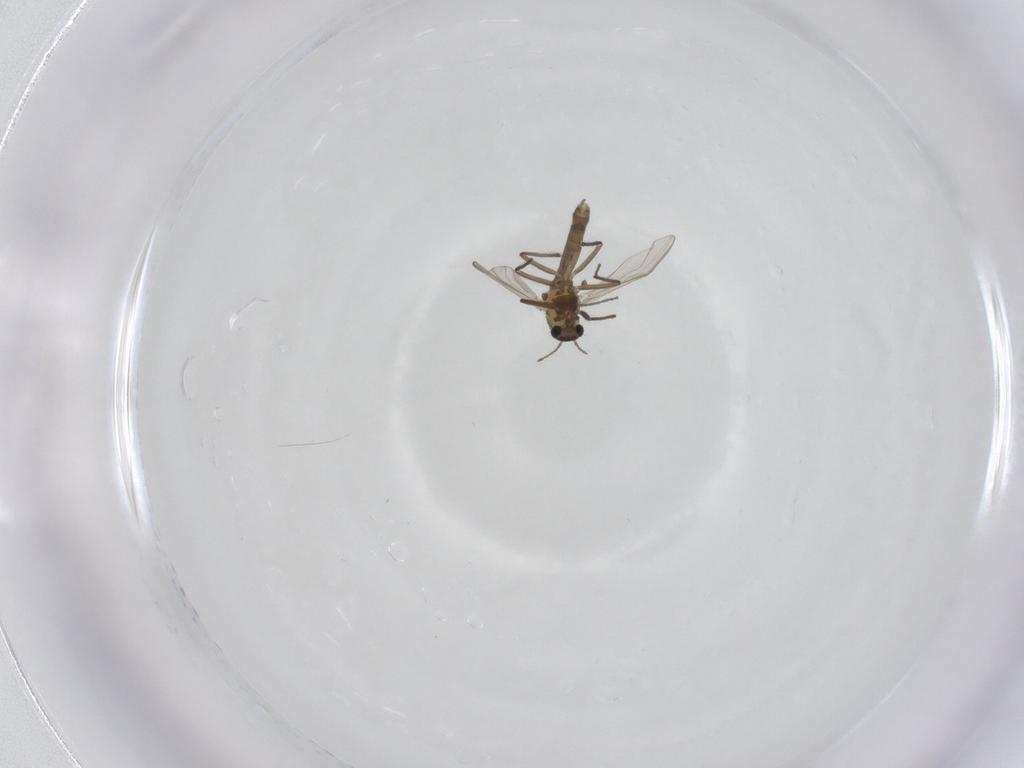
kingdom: Animalia
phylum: Arthropoda
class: Insecta
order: Diptera
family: Chironomidae
